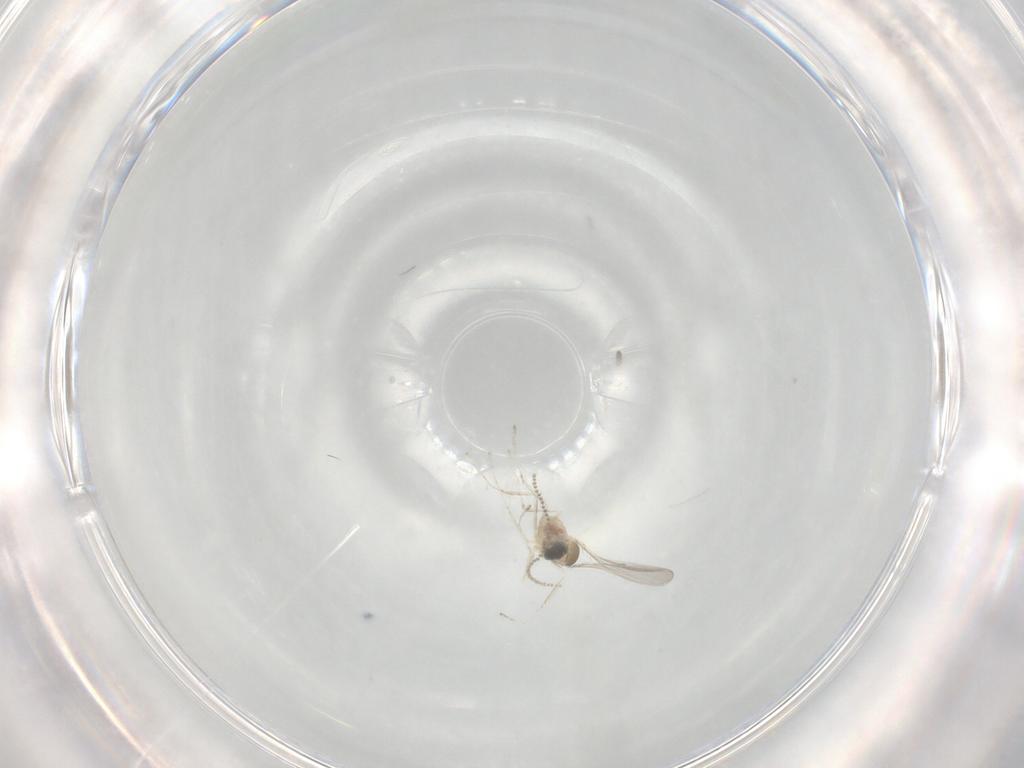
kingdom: Animalia
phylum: Arthropoda
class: Insecta
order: Diptera
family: Cecidomyiidae
